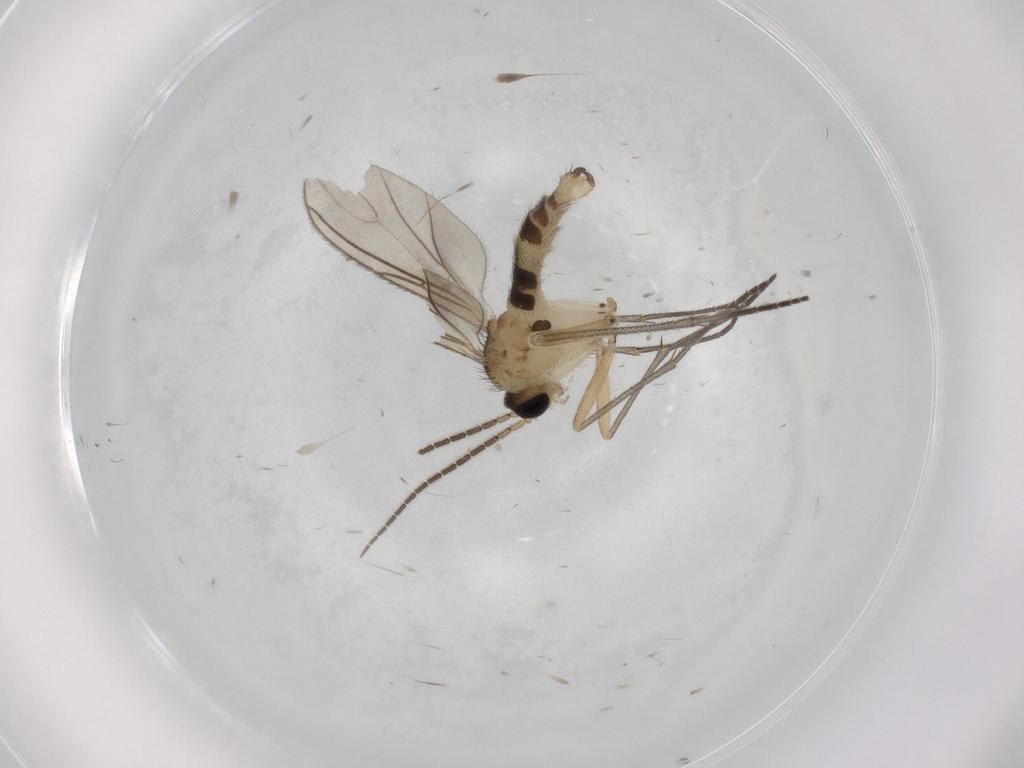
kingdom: Animalia
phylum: Arthropoda
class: Insecta
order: Diptera
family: Sciaridae
